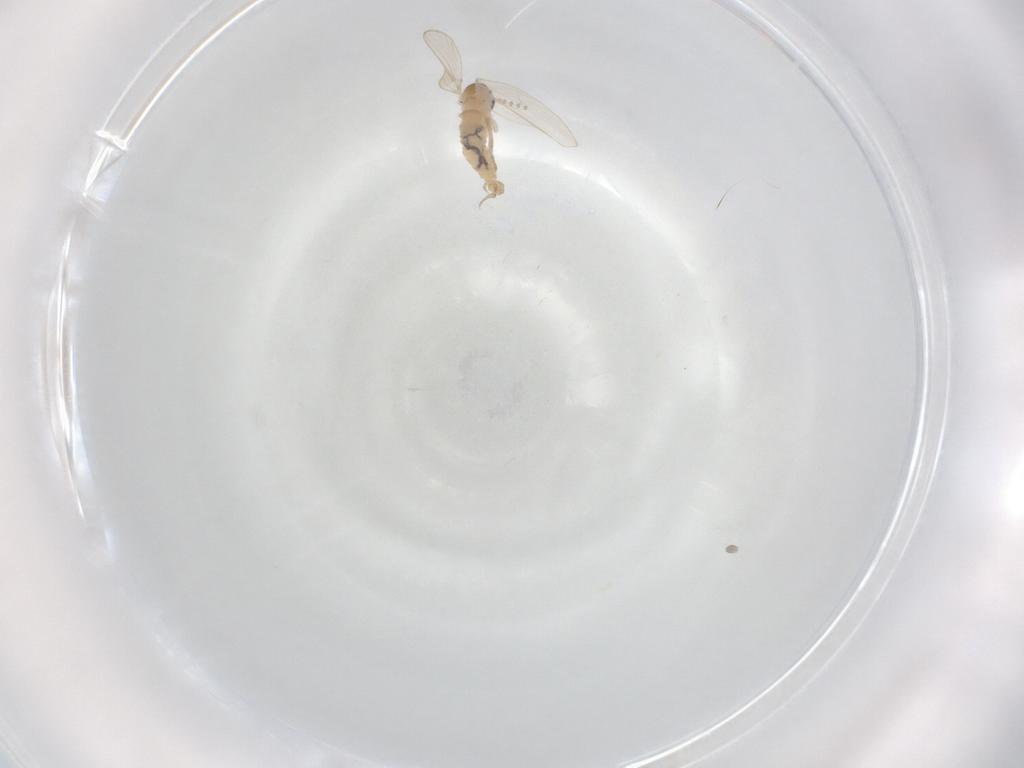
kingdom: Animalia
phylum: Arthropoda
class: Insecta
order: Diptera
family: Psychodidae
